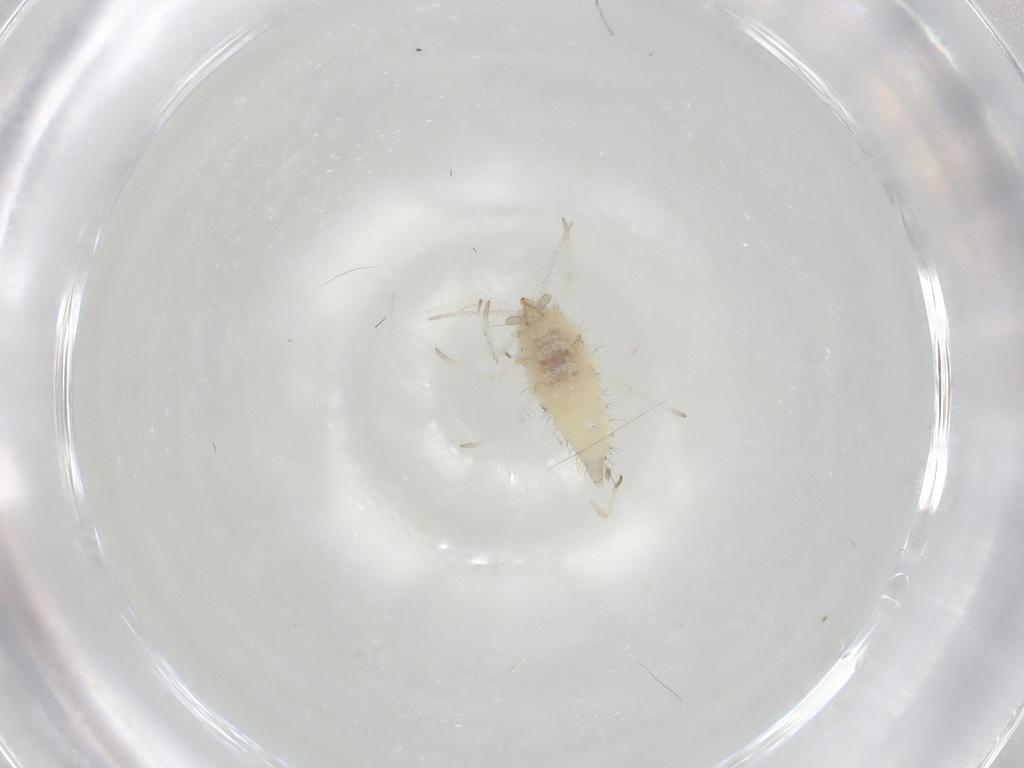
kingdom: Animalia
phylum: Arthropoda
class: Insecta
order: Neuroptera
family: Coniopterygidae
